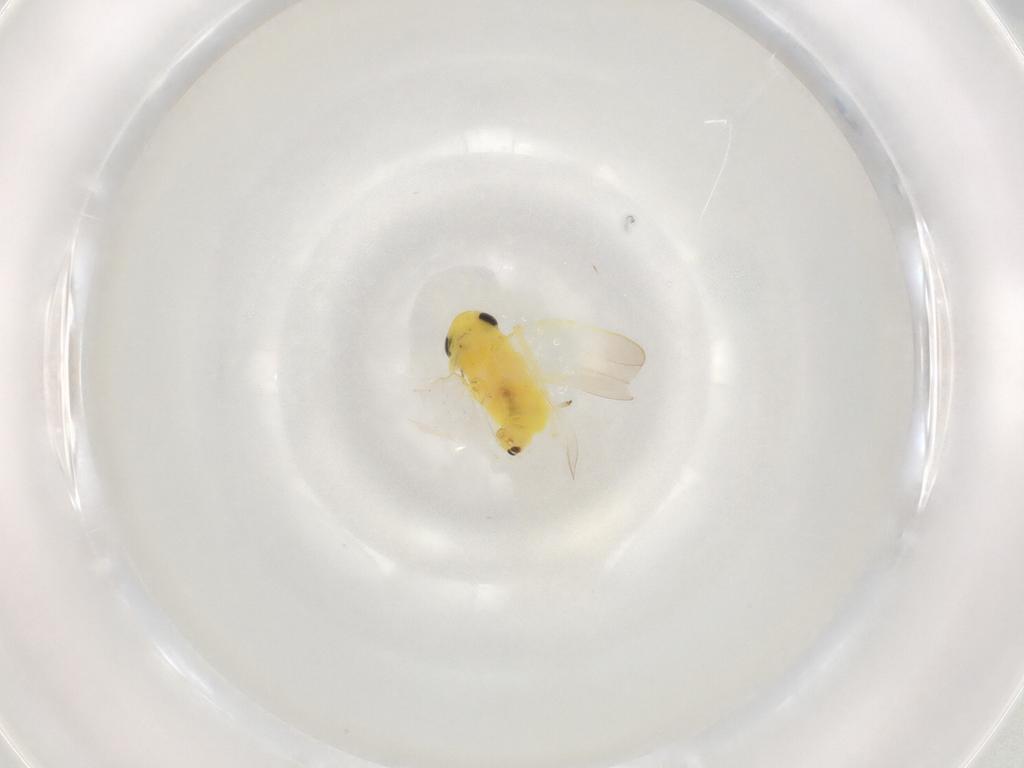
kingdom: Animalia
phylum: Arthropoda
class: Insecta
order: Hemiptera
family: Cicadellidae
